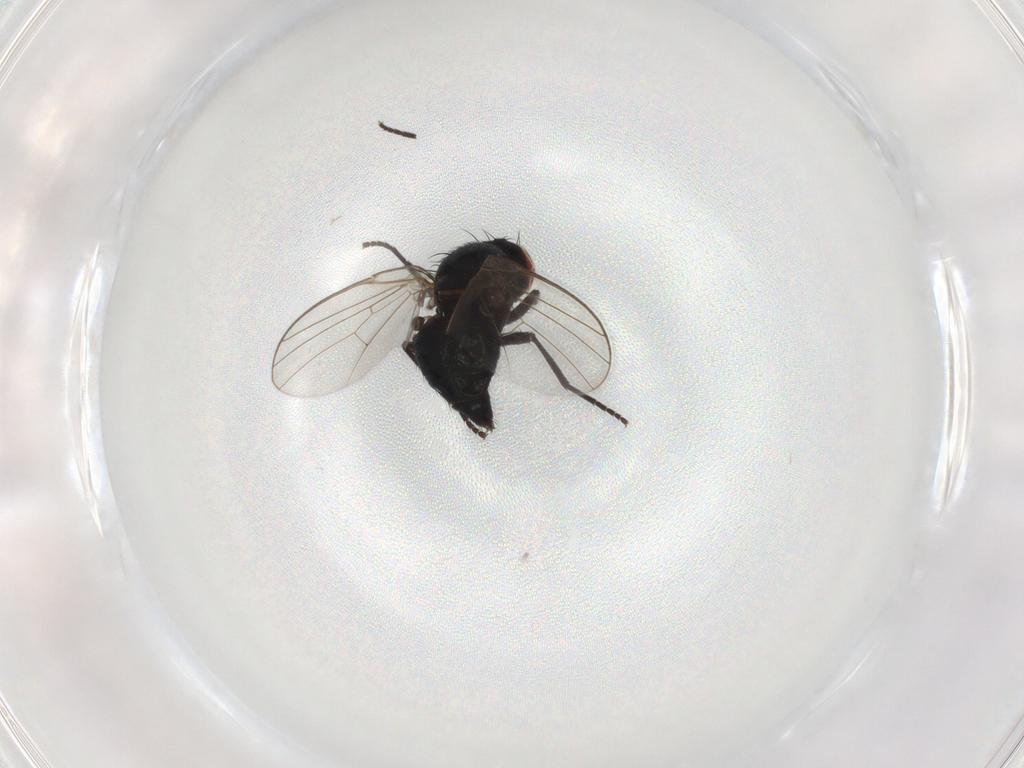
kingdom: Animalia
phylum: Arthropoda
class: Insecta
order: Diptera
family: Agromyzidae
